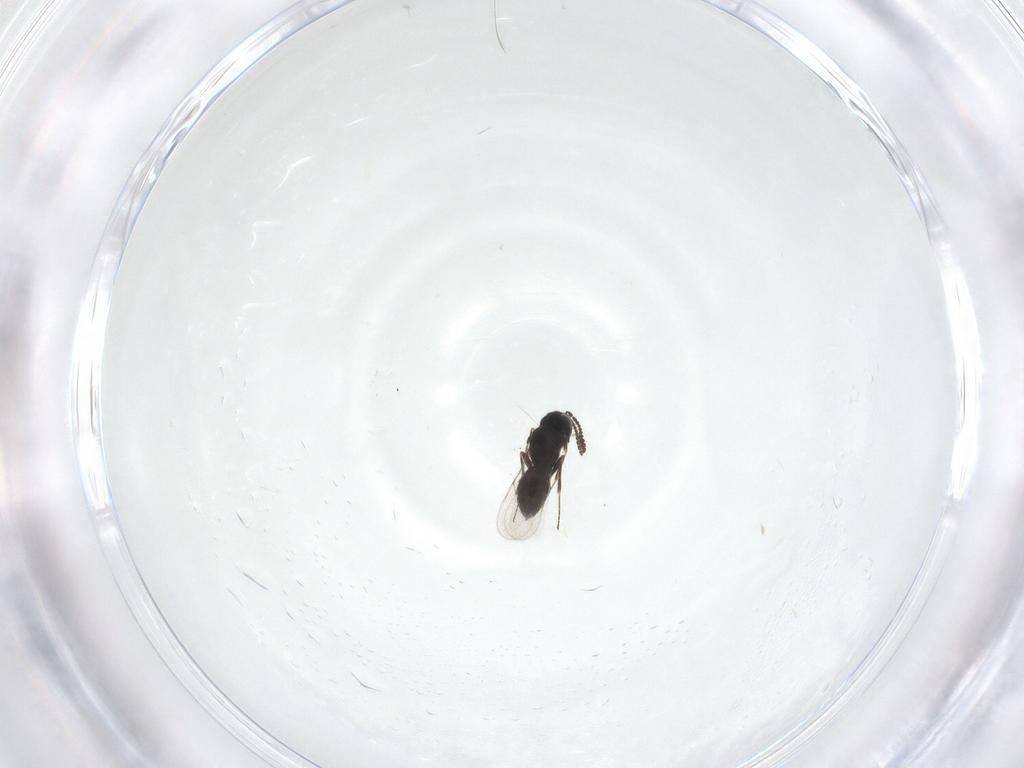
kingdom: Animalia
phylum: Arthropoda
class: Insecta
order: Hymenoptera
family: Scelionidae
